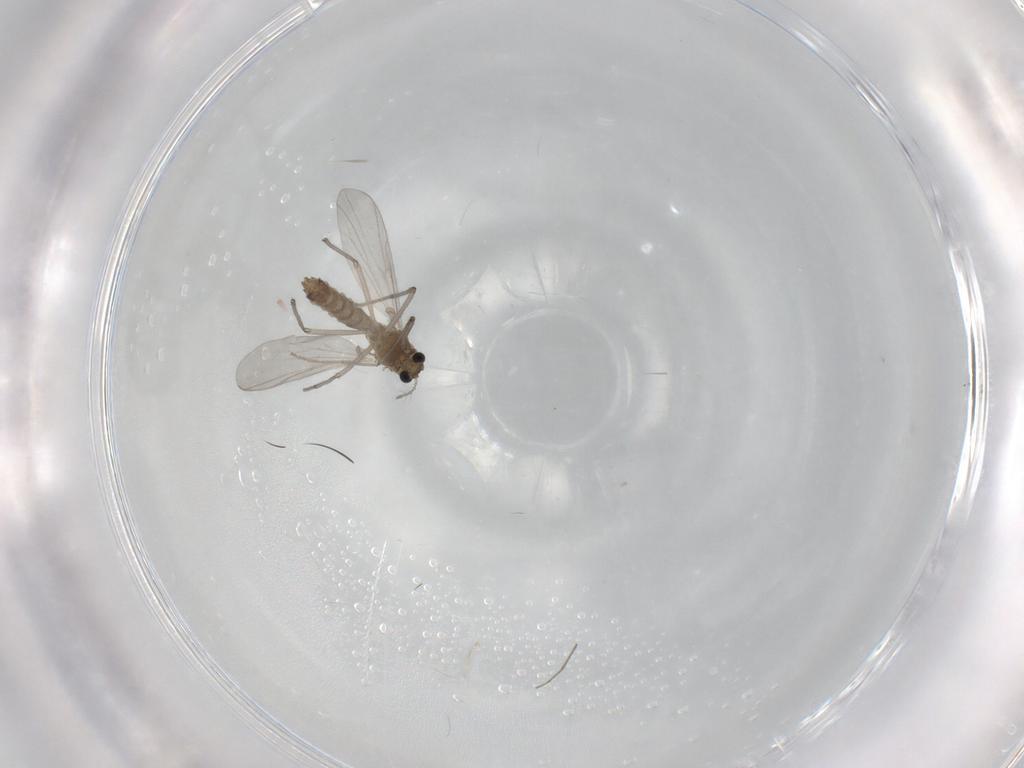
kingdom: Animalia
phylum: Arthropoda
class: Insecta
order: Diptera
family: Chironomidae
